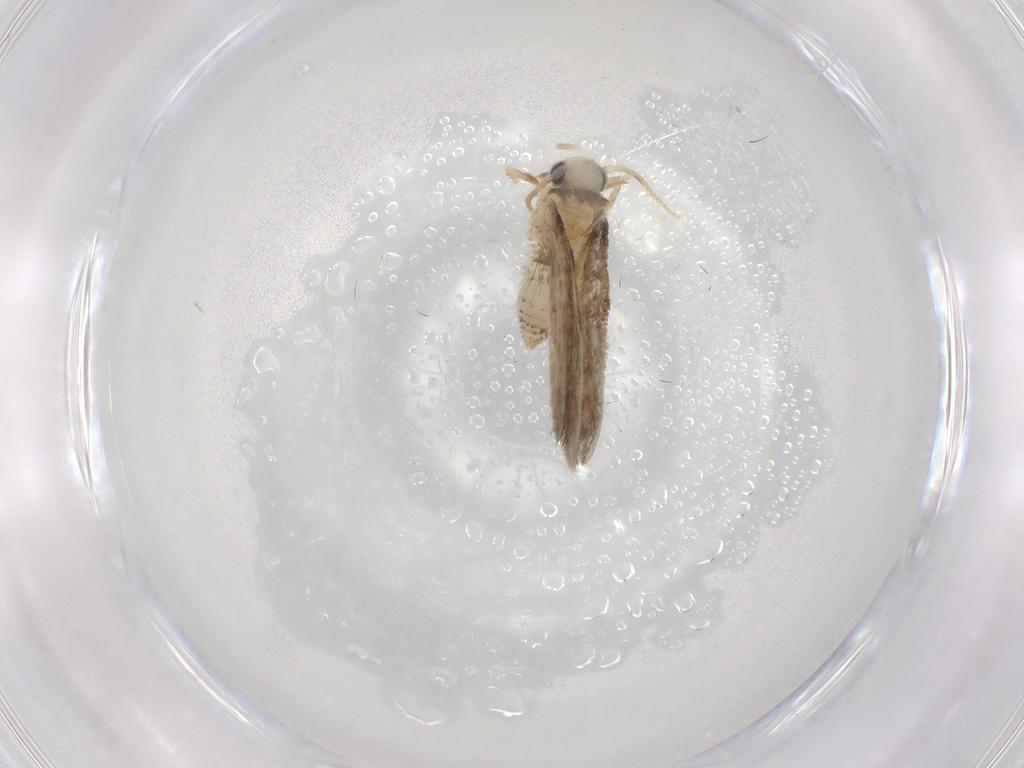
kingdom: Animalia
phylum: Arthropoda
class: Insecta
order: Lepidoptera
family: Psychidae
